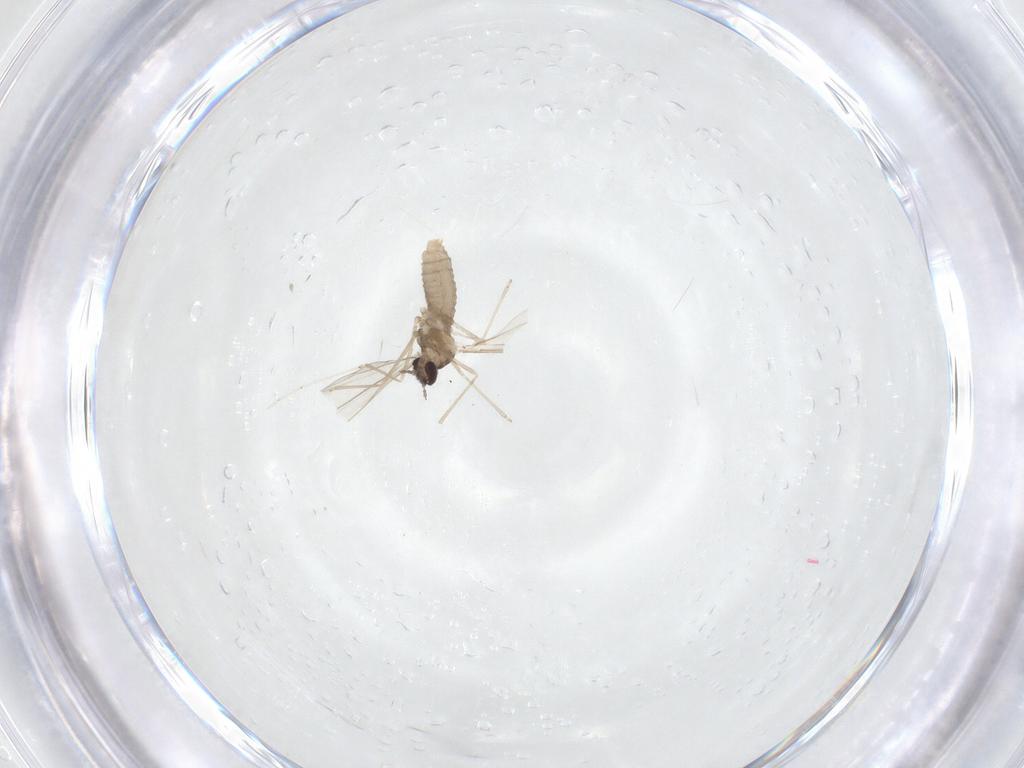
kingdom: Animalia
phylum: Arthropoda
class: Insecta
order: Diptera
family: Cecidomyiidae
